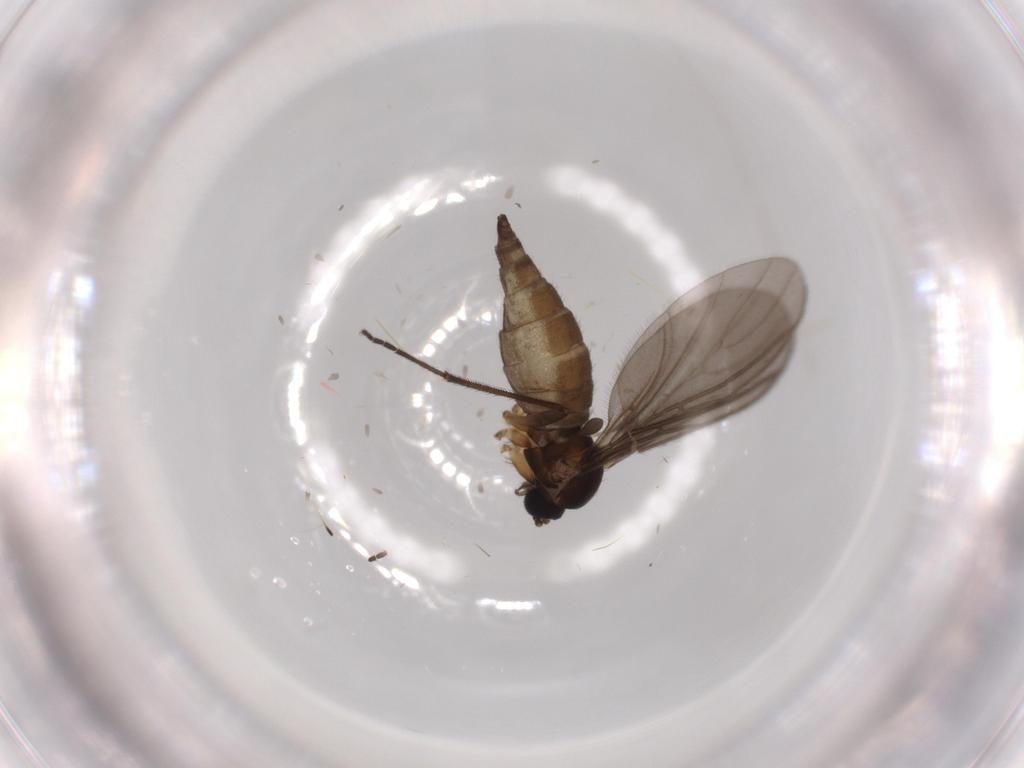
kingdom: Animalia
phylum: Arthropoda
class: Insecta
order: Diptera
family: Sciaridae
